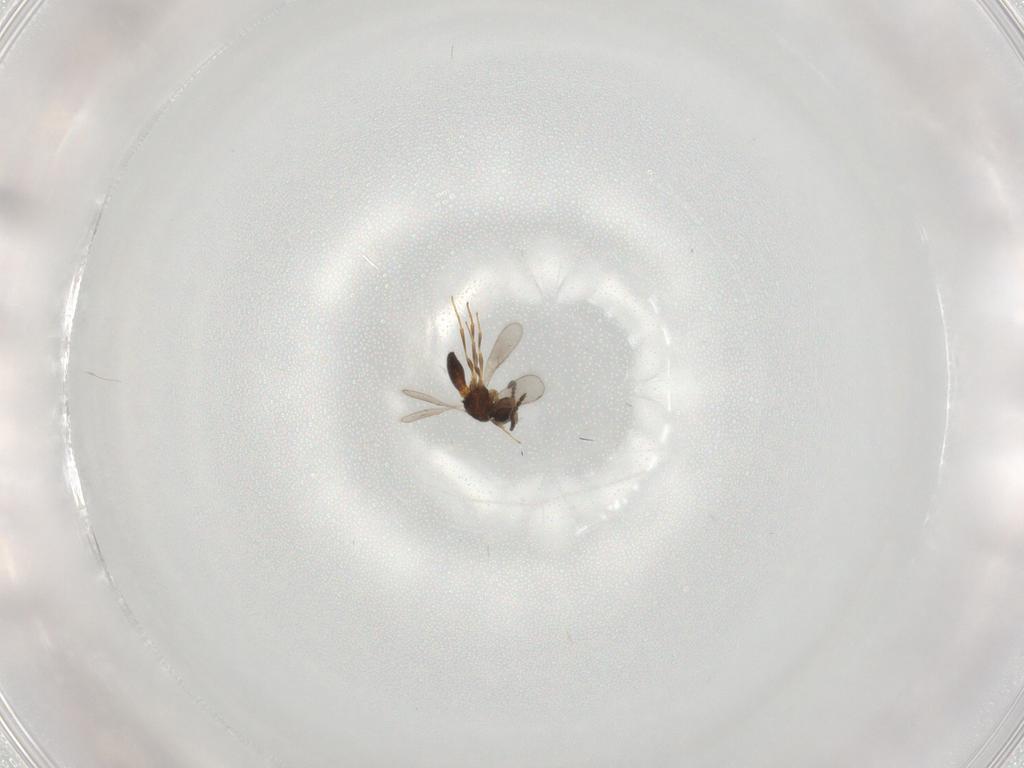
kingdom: Animalia
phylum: Arthropoda
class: Insecta
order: Hymenoptera
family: Scelionidae
